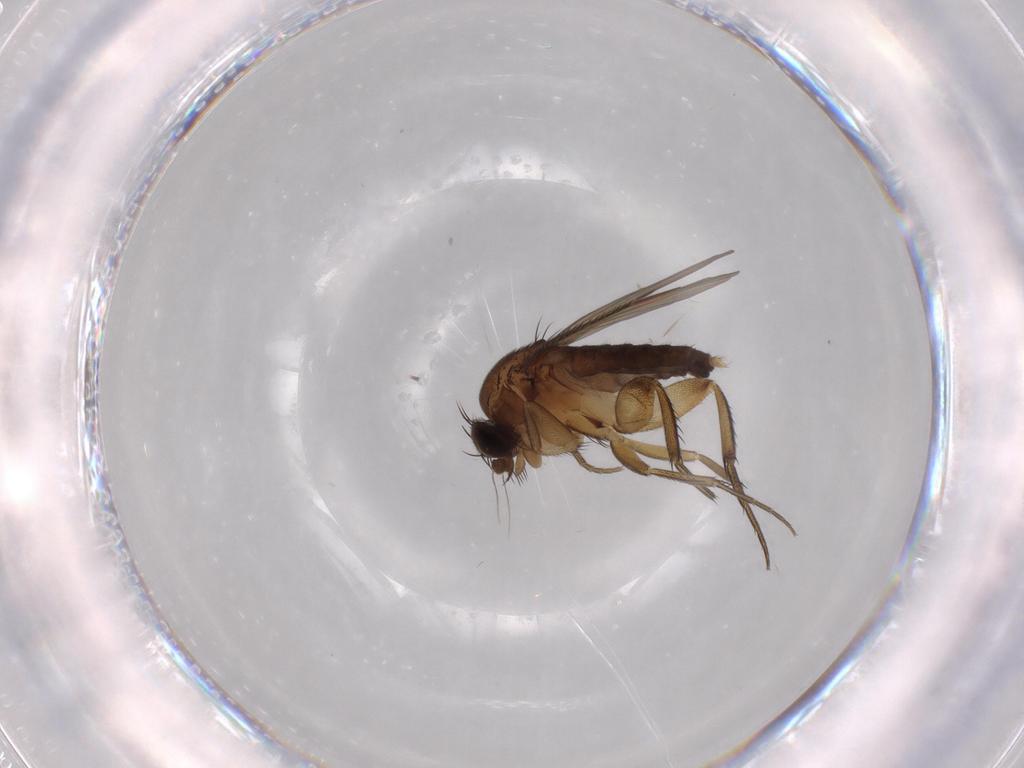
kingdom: Animalia
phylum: Arthropoda
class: Insecta
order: Diptera
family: Phoridae
